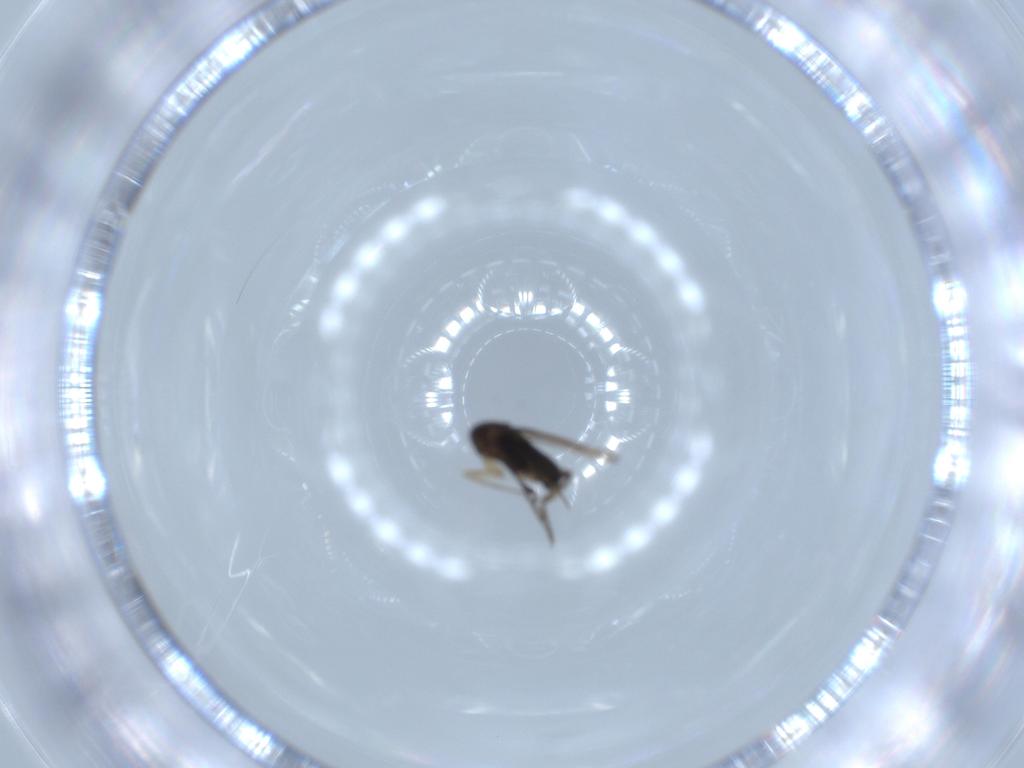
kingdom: Animalia
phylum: Arthropoda
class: Insecta
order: Diptera
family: Phoridae
